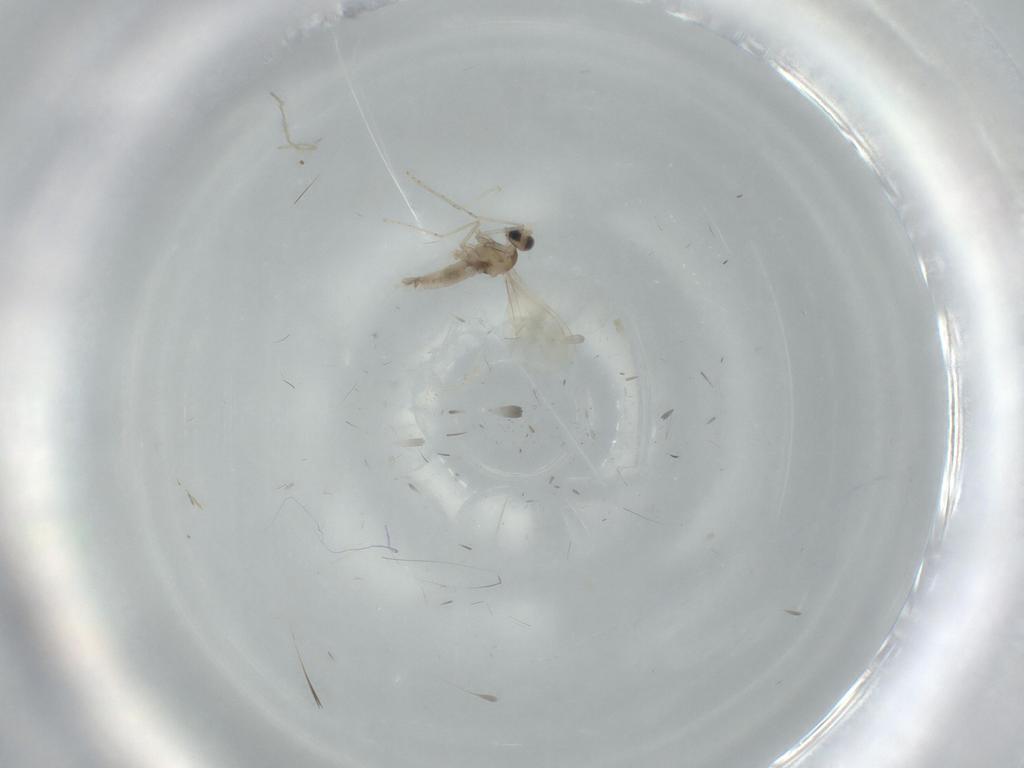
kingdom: Animalia
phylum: Arthropoda
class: Insecta
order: Diptera
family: Cecidomyiidae
